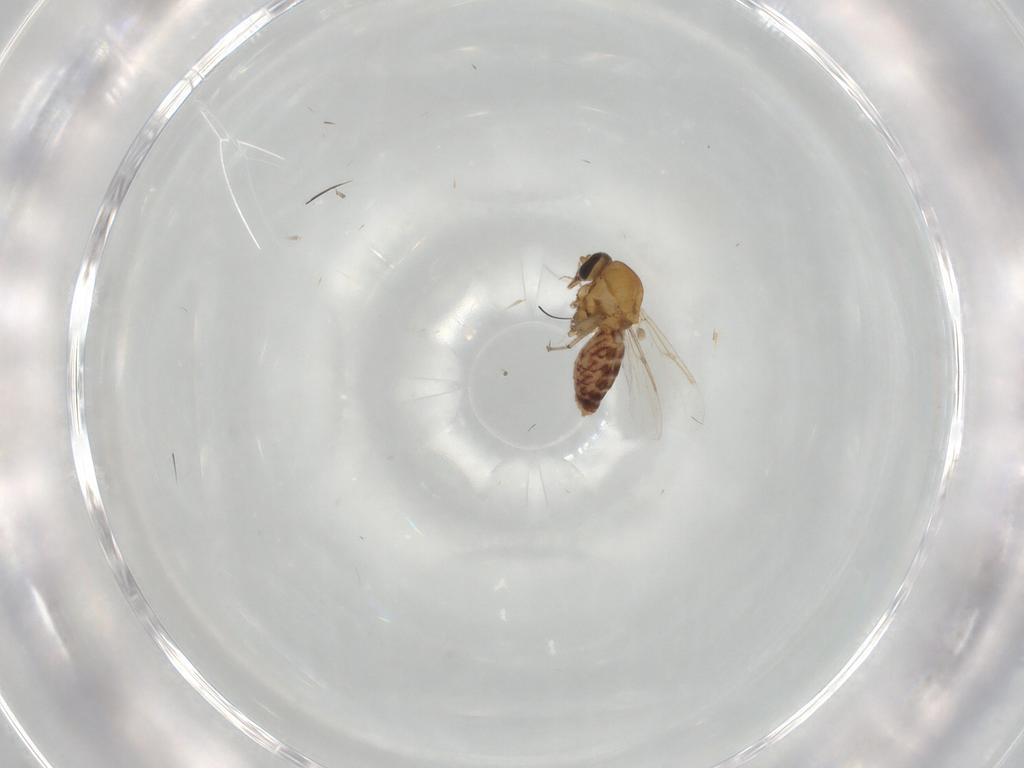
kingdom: Animalia
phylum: Arthropoda
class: Insecta
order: Diptera
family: Ceratopogonidae
